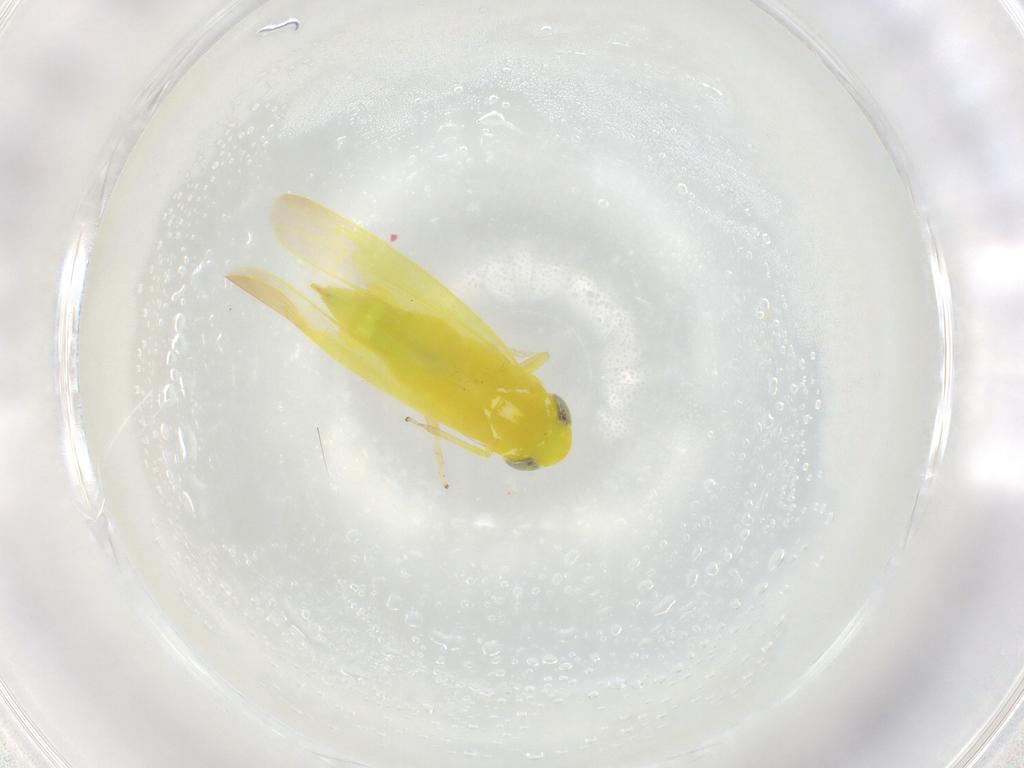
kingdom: Animalia
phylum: Arthropoda
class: Insecta
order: Hemiptera
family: Cicadellidae
